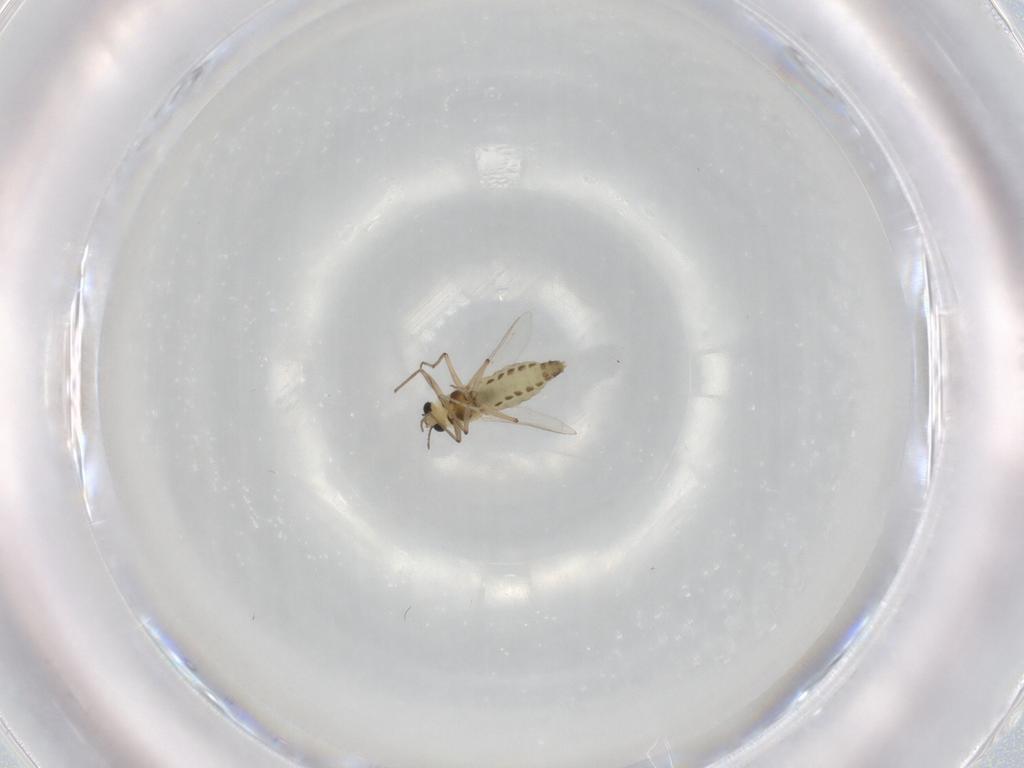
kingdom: Animalia
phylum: Arthropoda
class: Insecta
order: Diptera
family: Chironomidae
